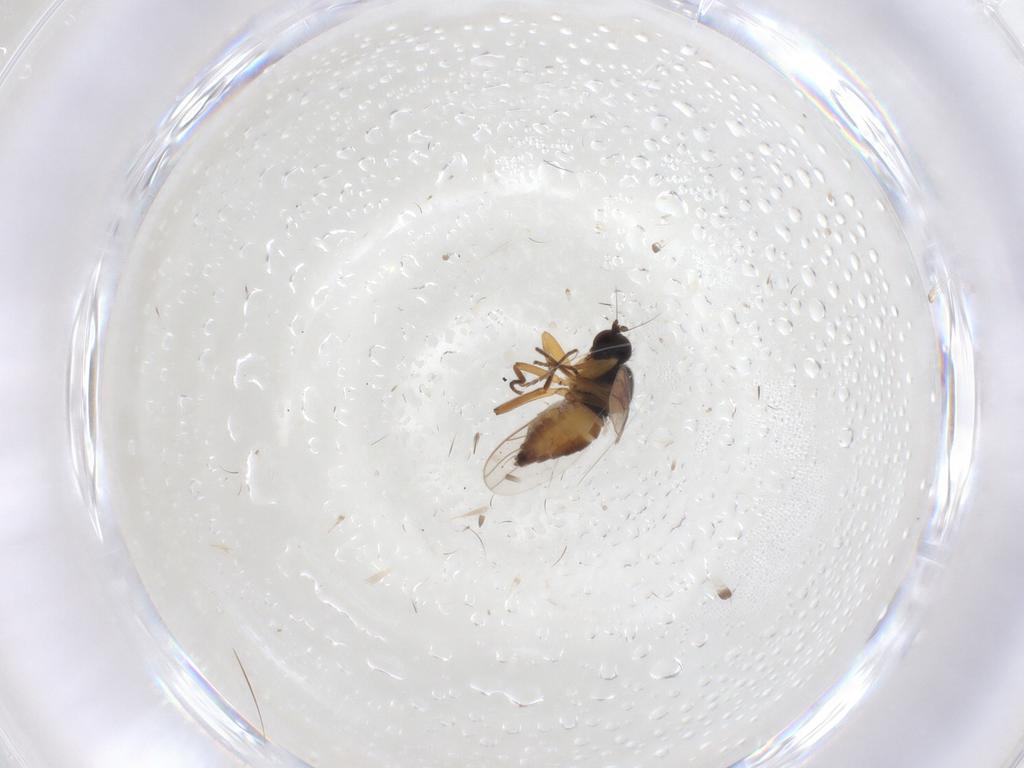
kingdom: Animalia
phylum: Arthropoda
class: Insecta
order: Diptera
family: Hybotidae
